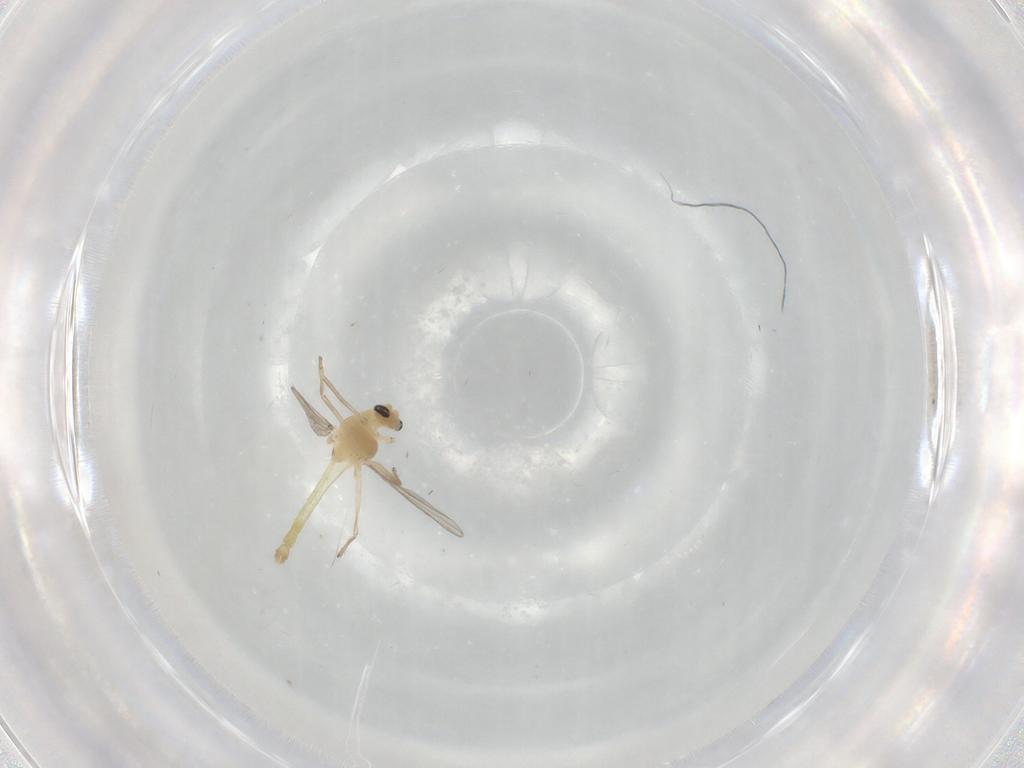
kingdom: Animalia
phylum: Arthropoda
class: Insecta
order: Diptera
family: Chironomidae
